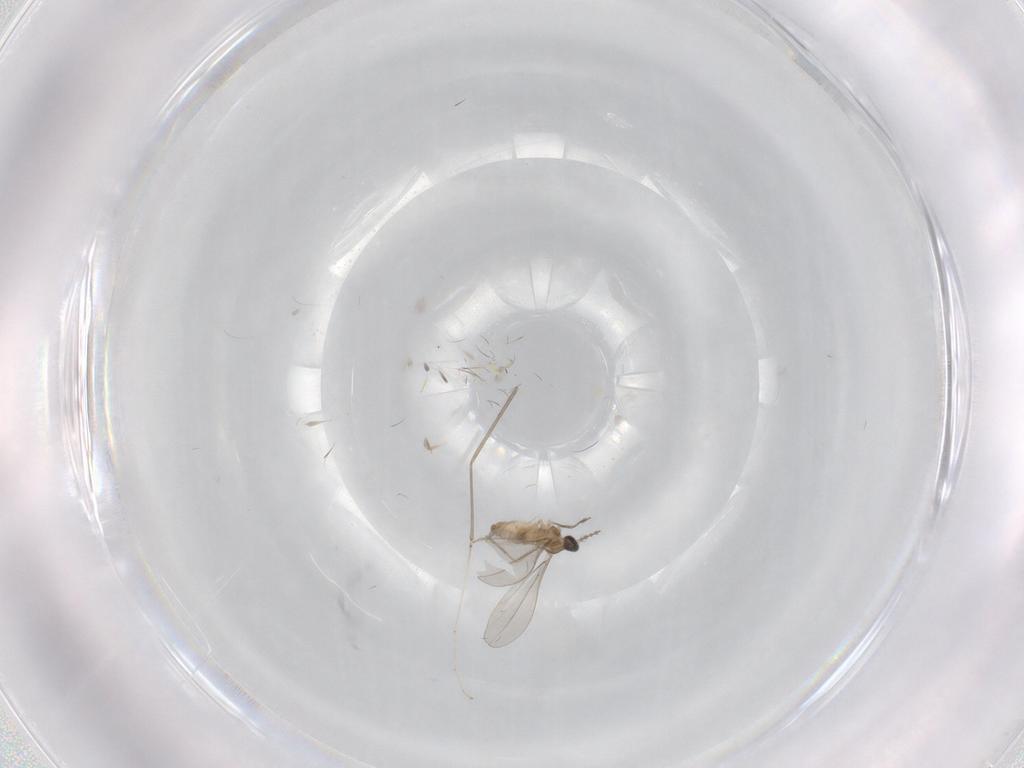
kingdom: Animalia
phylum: Arthropoda
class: Insecta
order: Diptera
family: Cecidomyiidae
